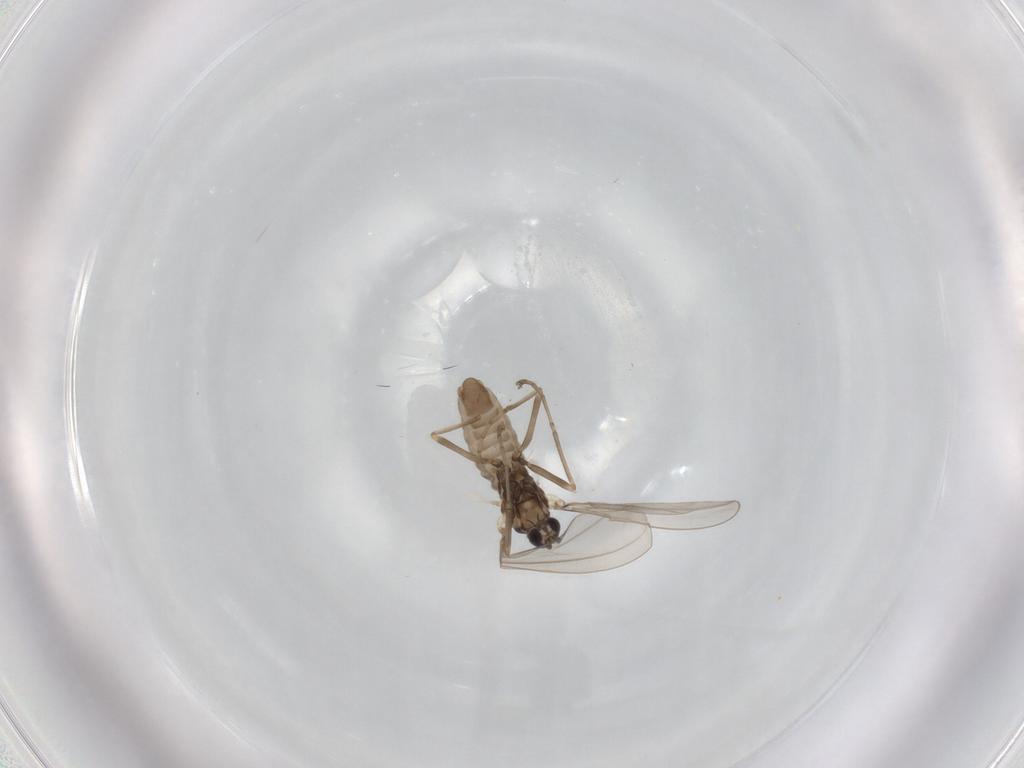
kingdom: Animalia
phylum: Arthropoda
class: Insecta
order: Diptera
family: Cecidomyiidae
